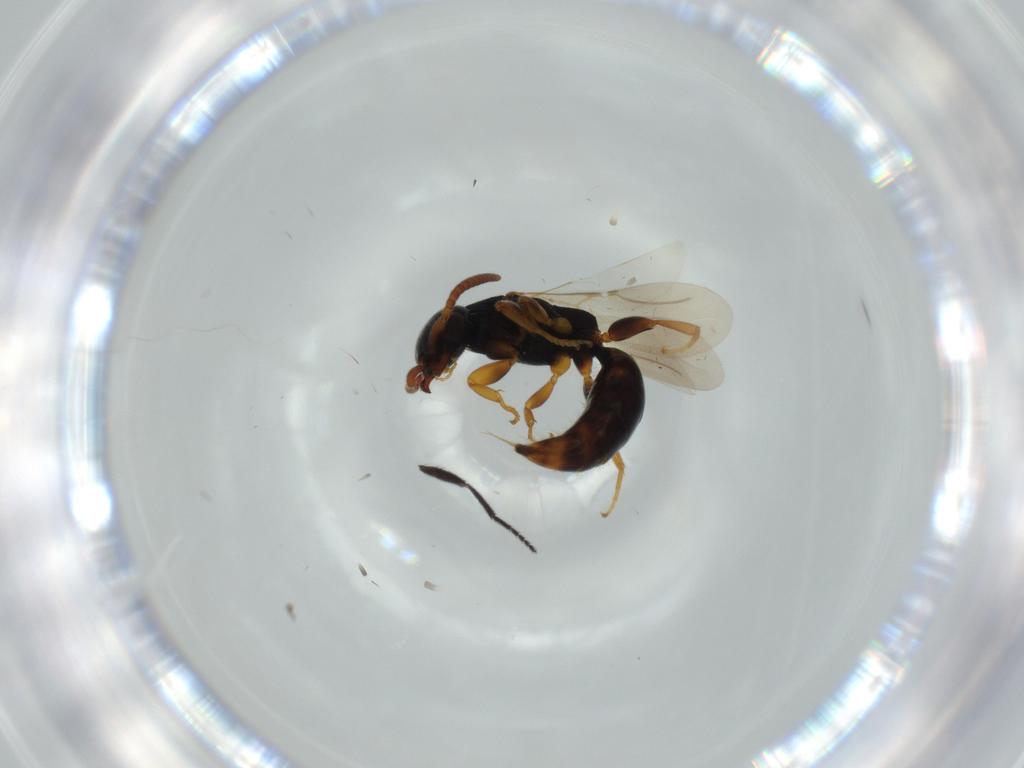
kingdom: Animalia
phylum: Arthropoda
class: Insecta
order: Hymenoptera
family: Bethylidae
